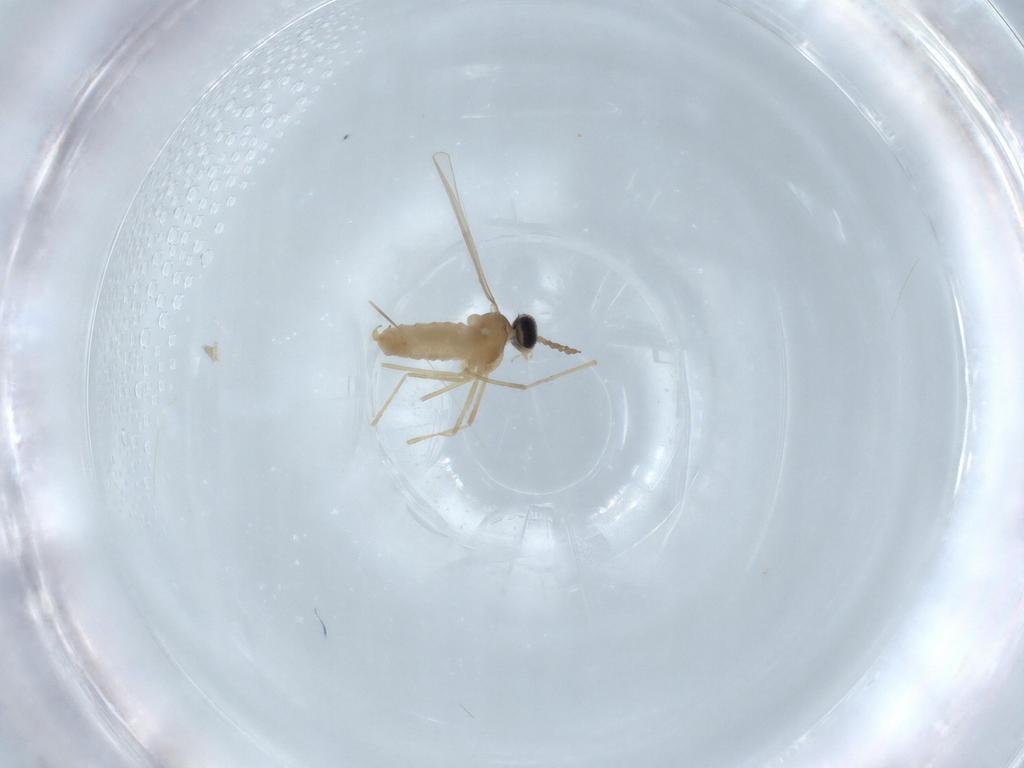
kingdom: Animalia
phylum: Arthropoda
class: Insecta
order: Diptera
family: Cecidomyiidae
